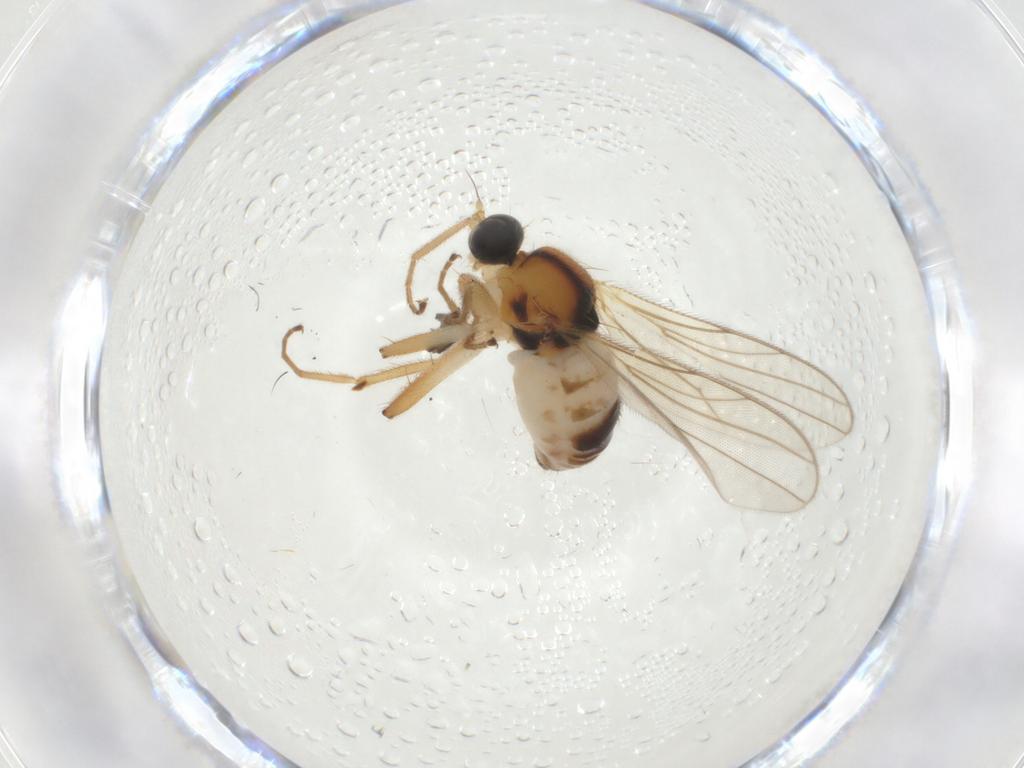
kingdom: Animalia
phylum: Arthropoda
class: Insecta
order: Diptera
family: Hybotidae
